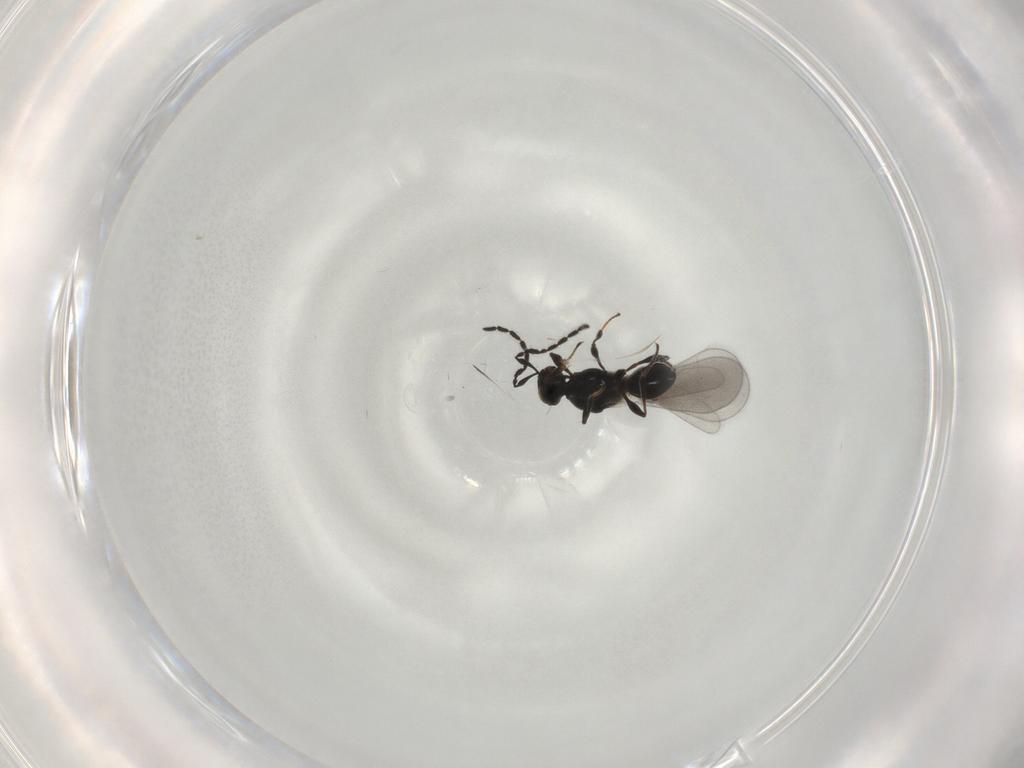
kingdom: Animalia
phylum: Arthropoda
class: Insecta
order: Hymenoptera
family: Platygastridae
